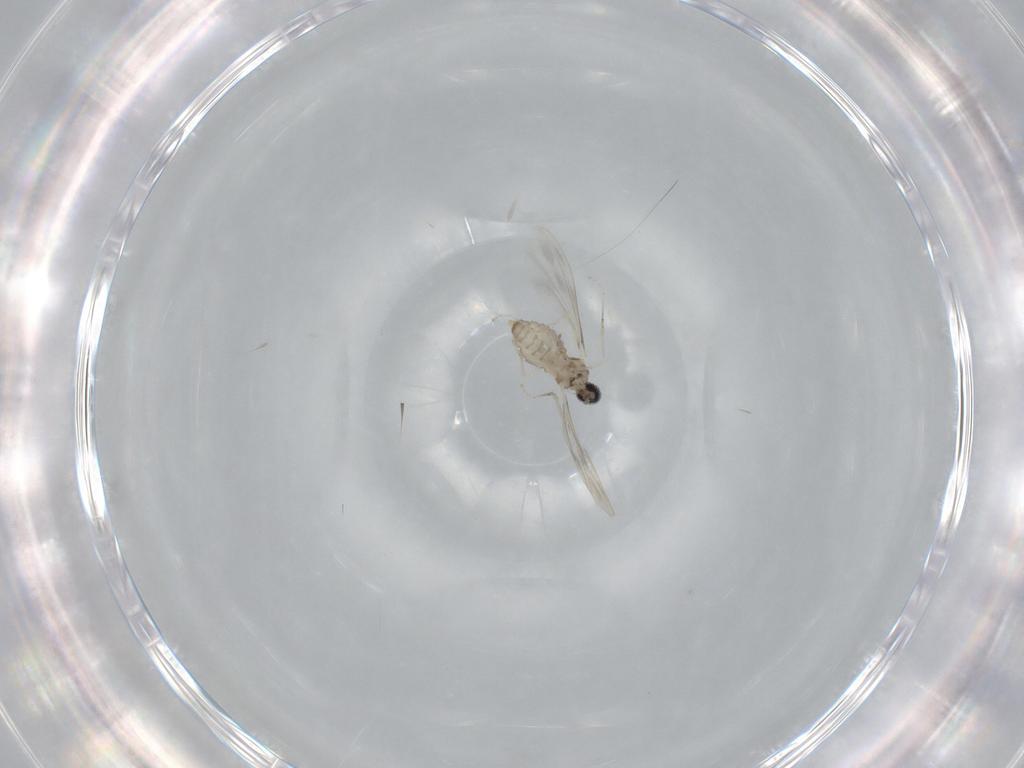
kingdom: Animalia
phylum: Arthropoda
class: Insecta
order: Diptera
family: Cecidomyiidae
